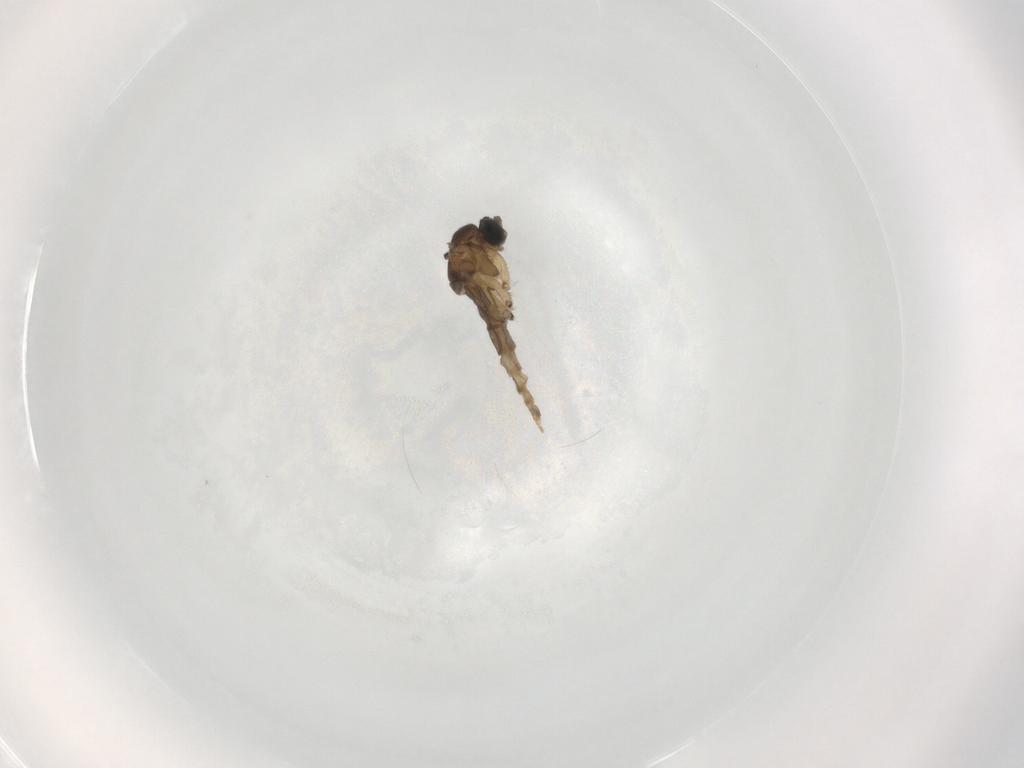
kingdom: Animalia
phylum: Arthropoda
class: Insecta
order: Diptera
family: Sciaridae
